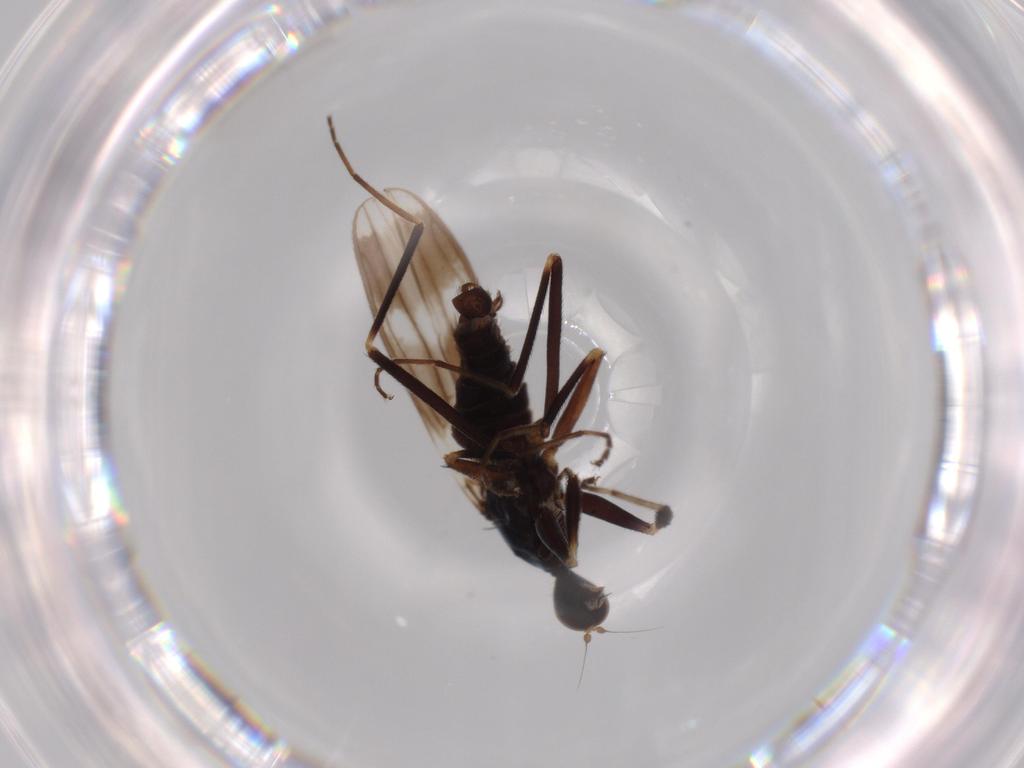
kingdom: Animalia
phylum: Arthropoda
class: Insecta
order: Diptera
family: Hybotidae
